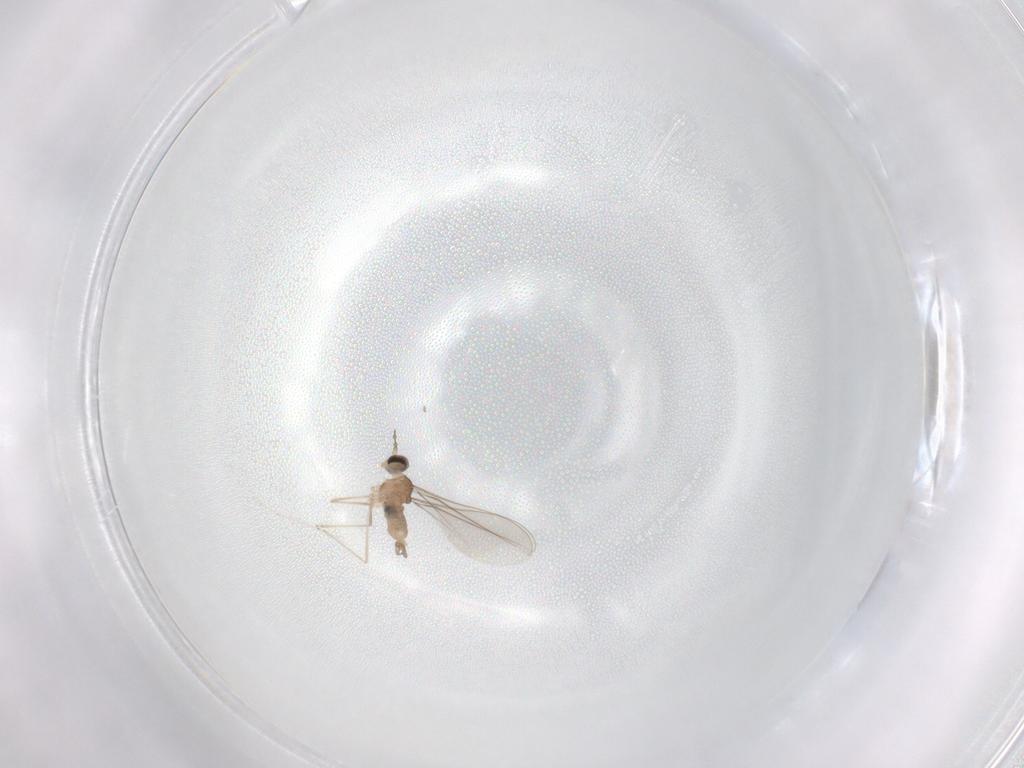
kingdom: Animalia
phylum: Arthropoda
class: Insecta
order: Diptera
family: Cecidomyiidae
